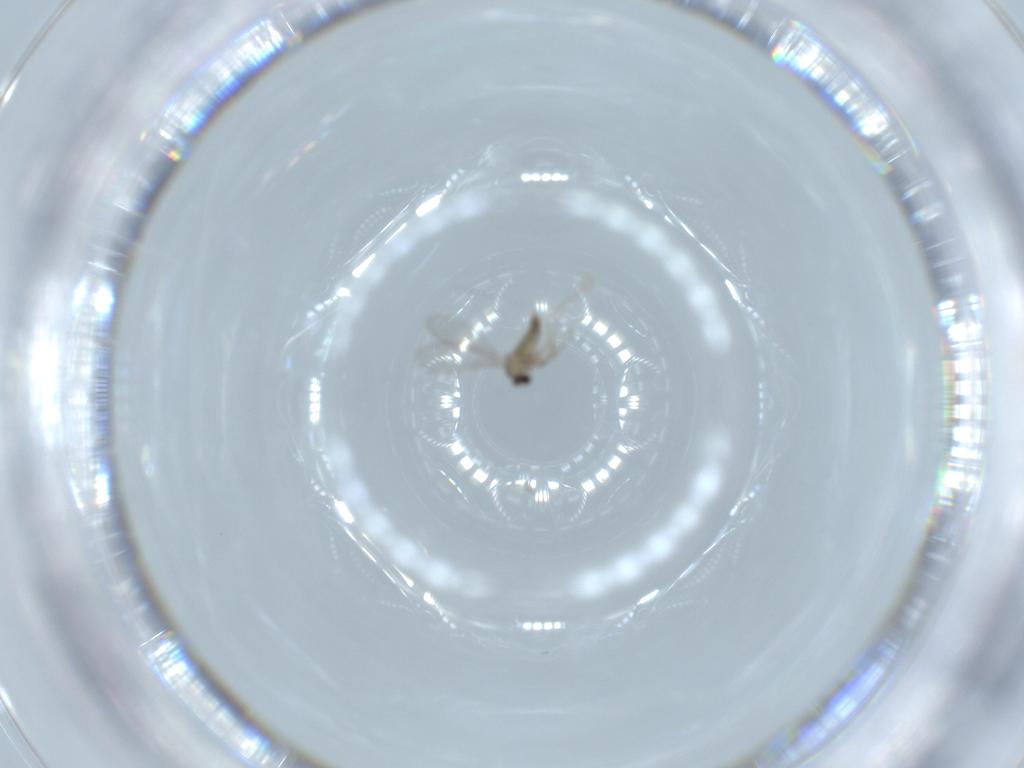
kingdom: Animalia
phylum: Arthropoda
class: Insecta
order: Diptera
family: Cecidomyiidae
